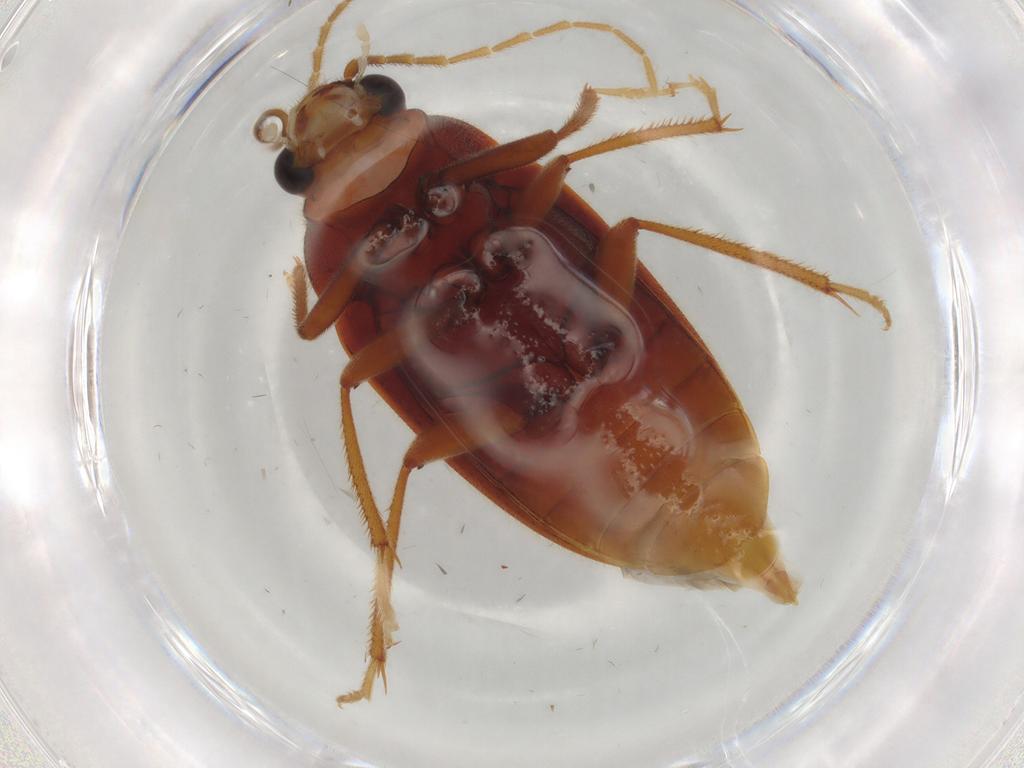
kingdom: Animalia
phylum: Arthropoda
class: Insecta
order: Coleoptera
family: Ptilodactylidae
